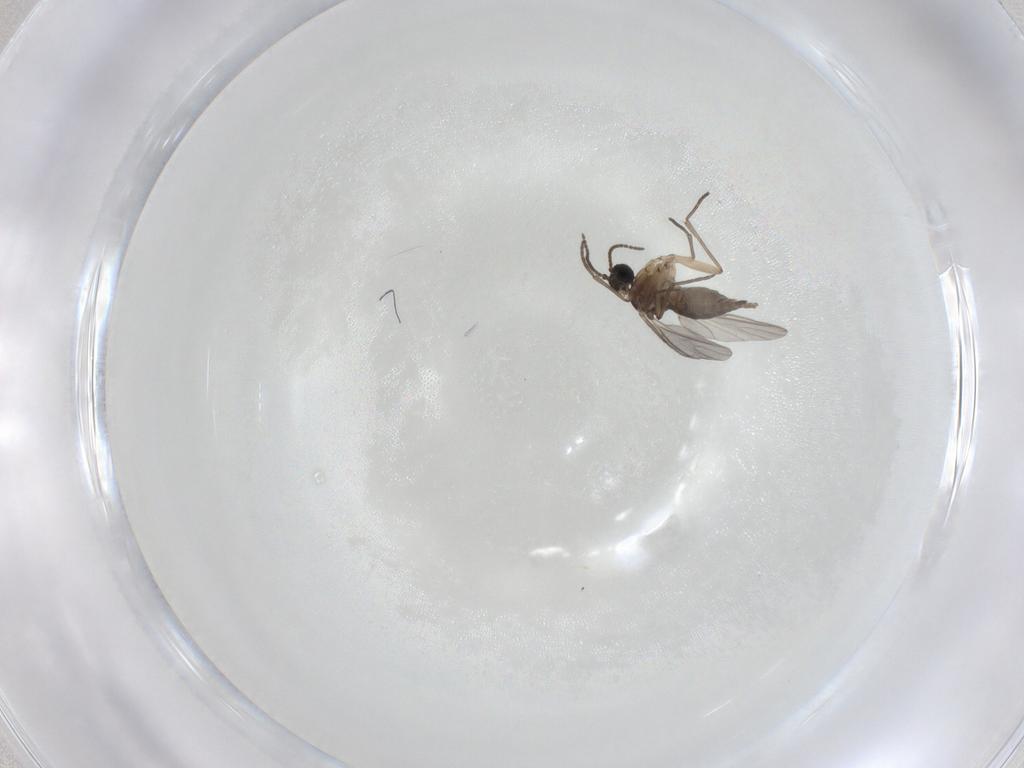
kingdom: Animalia
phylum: Arthropoda
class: Insecta
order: Diptera
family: Sciaridae
